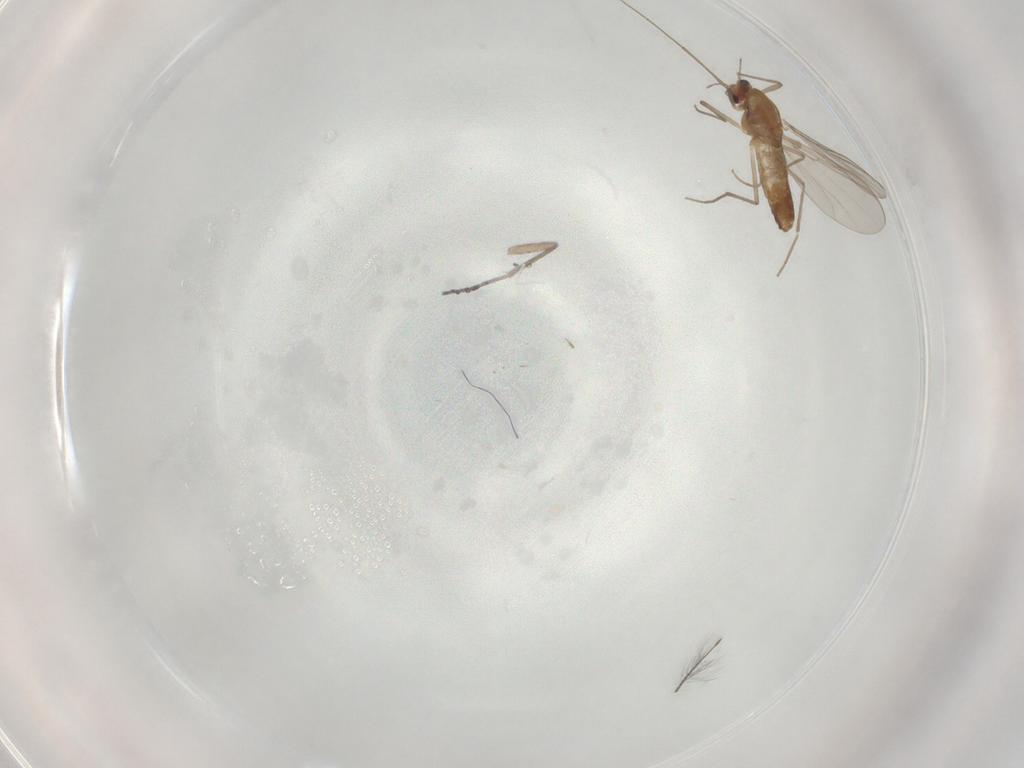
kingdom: Animalia
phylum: Arthropoda
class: Insecta
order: Diptera
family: Chironomidae
